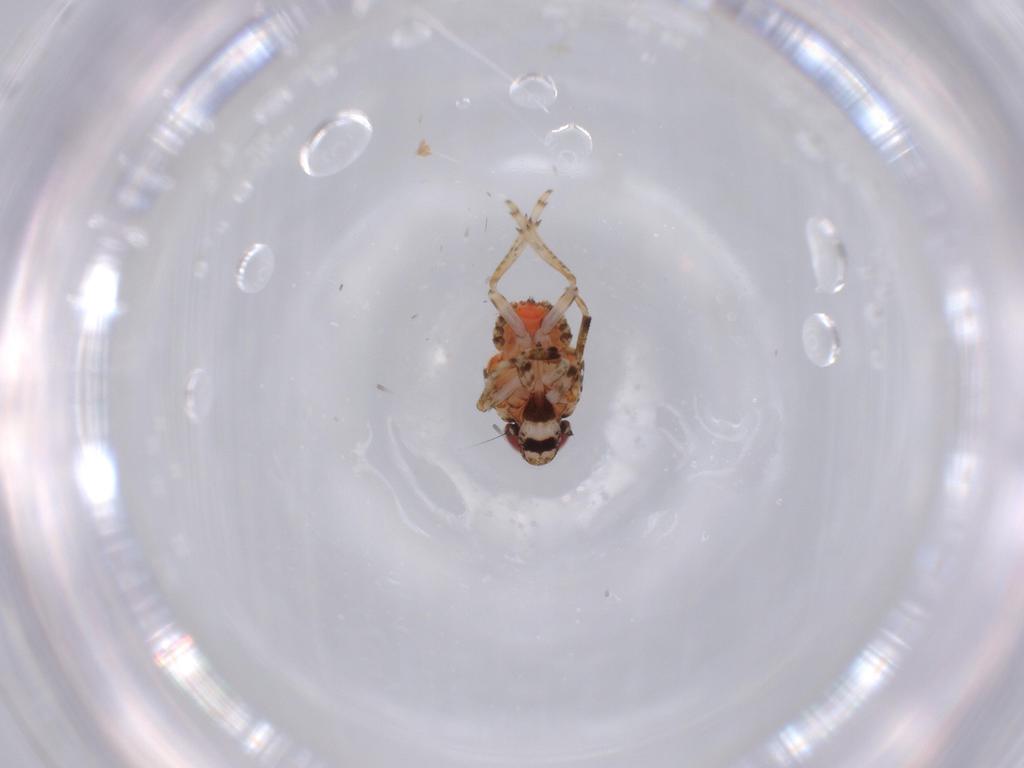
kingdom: Animalia
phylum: Arthropoda
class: Insecta
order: Hemiptera
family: Issidae
